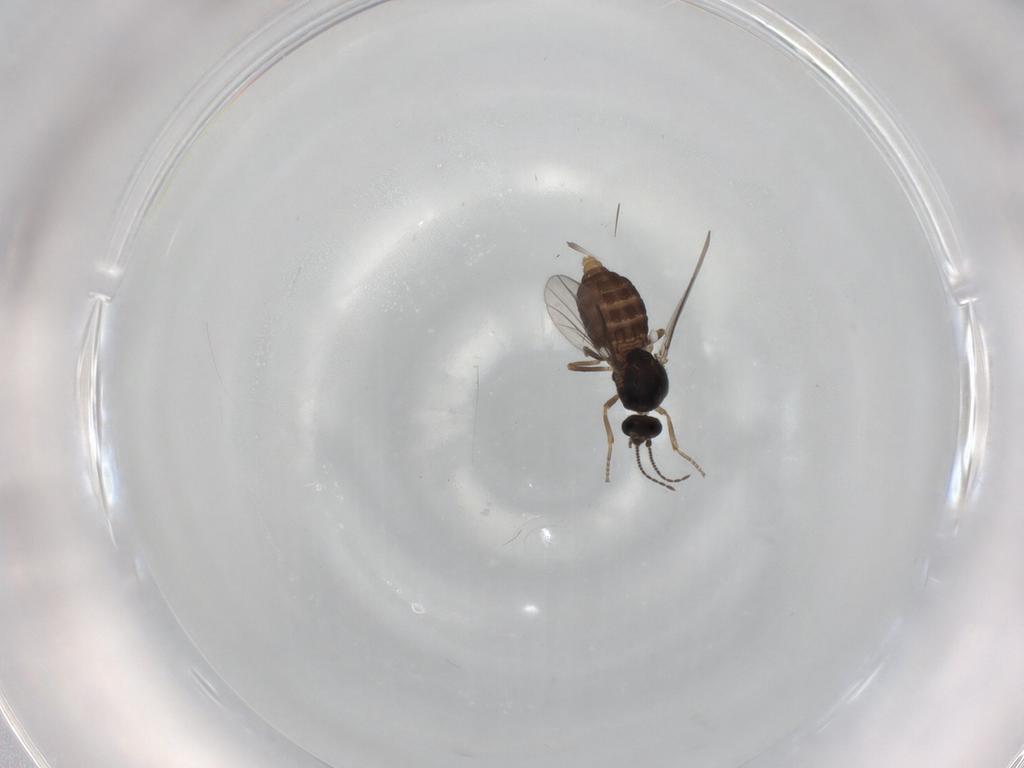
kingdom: Animalia
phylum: Arthropoda
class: Insecta
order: Diptera
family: Ceratopogonidae
